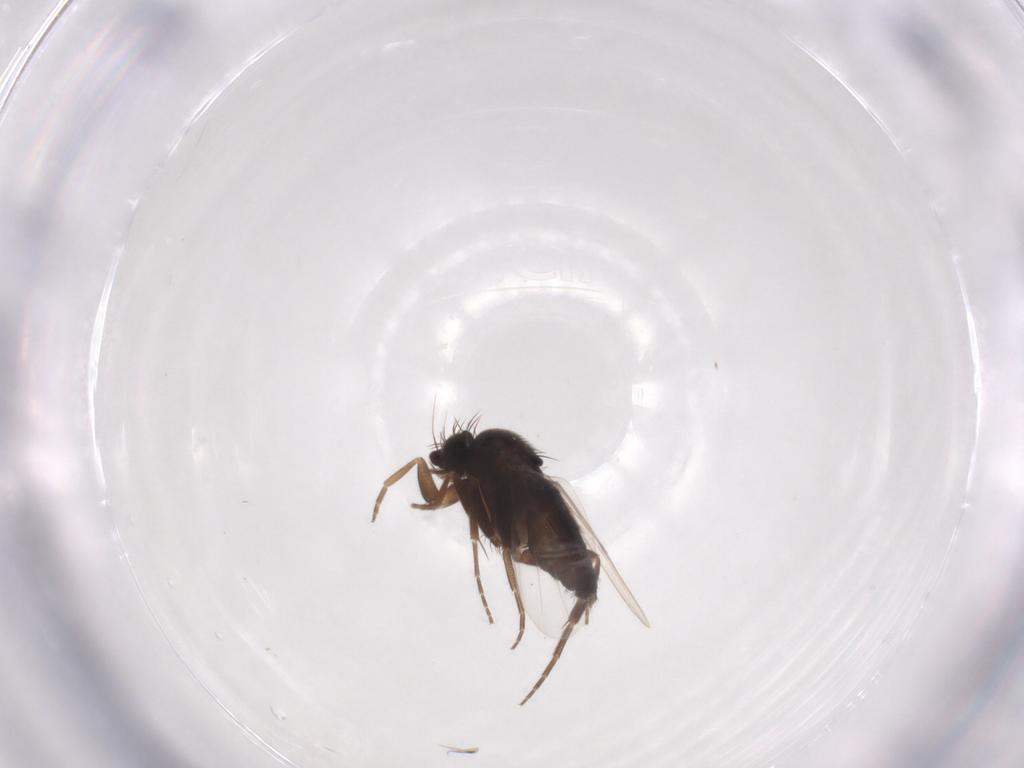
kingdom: Animalia
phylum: Arthropoda
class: Insecta
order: Diptera
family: Phoridae
